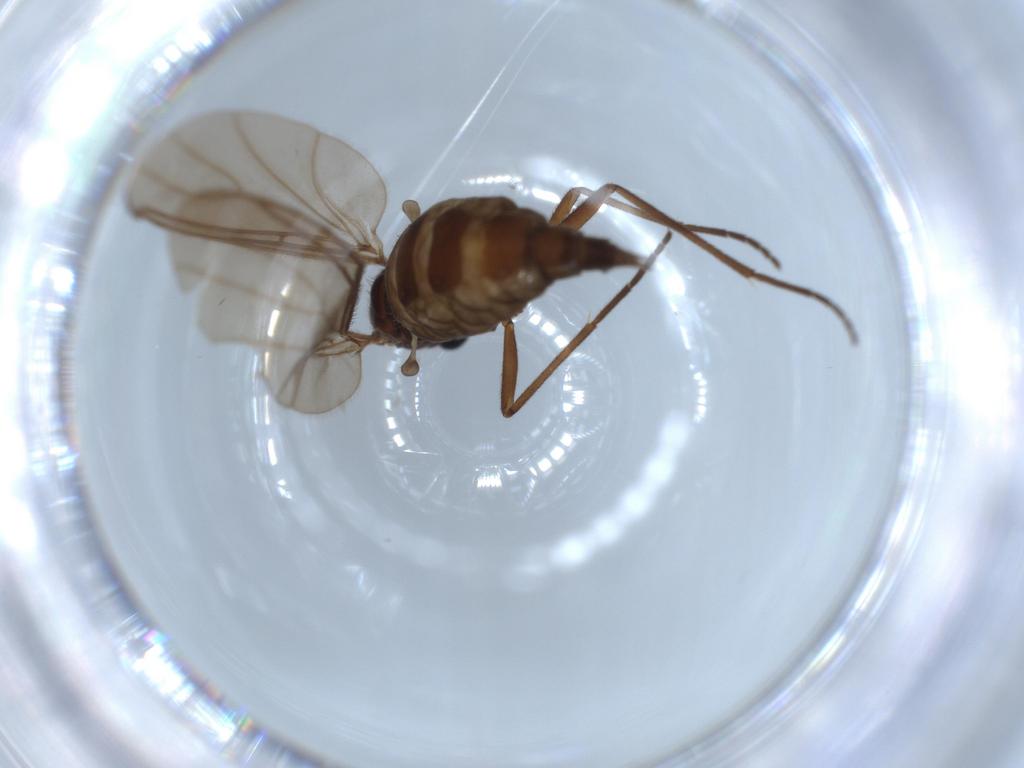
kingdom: Animalia
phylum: Arthropoda
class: Insecta
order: Diptera
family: Sciaridae
